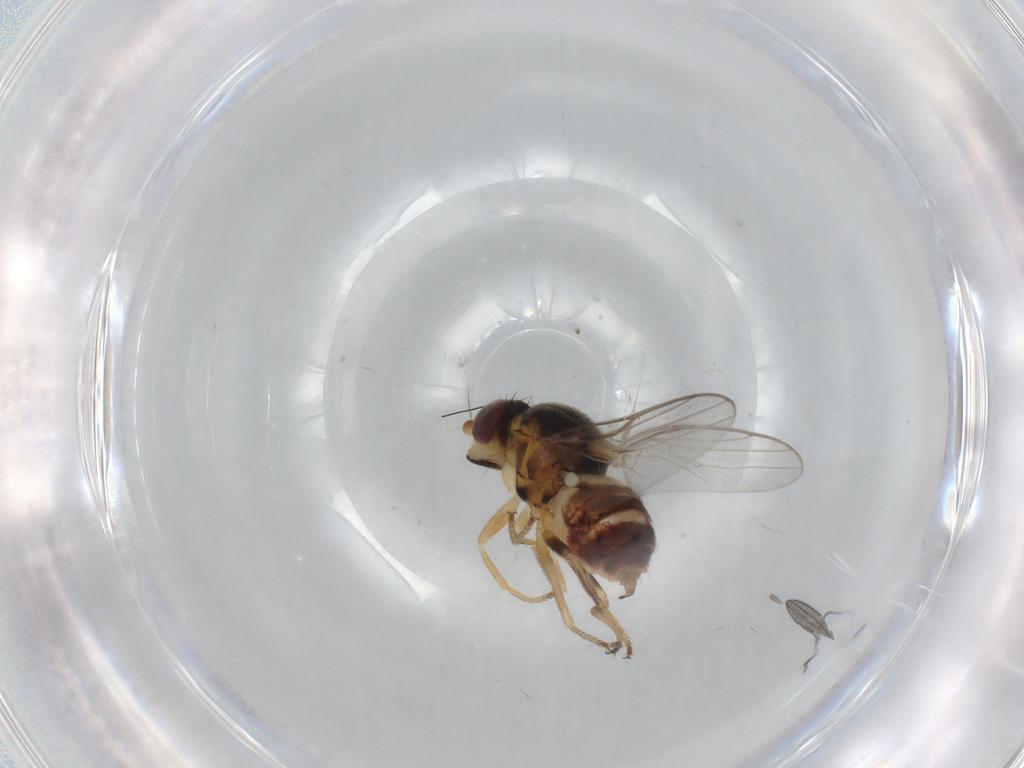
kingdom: Animalia
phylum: Arthropoda
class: Insecta
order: Diptera
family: Chloropidae
